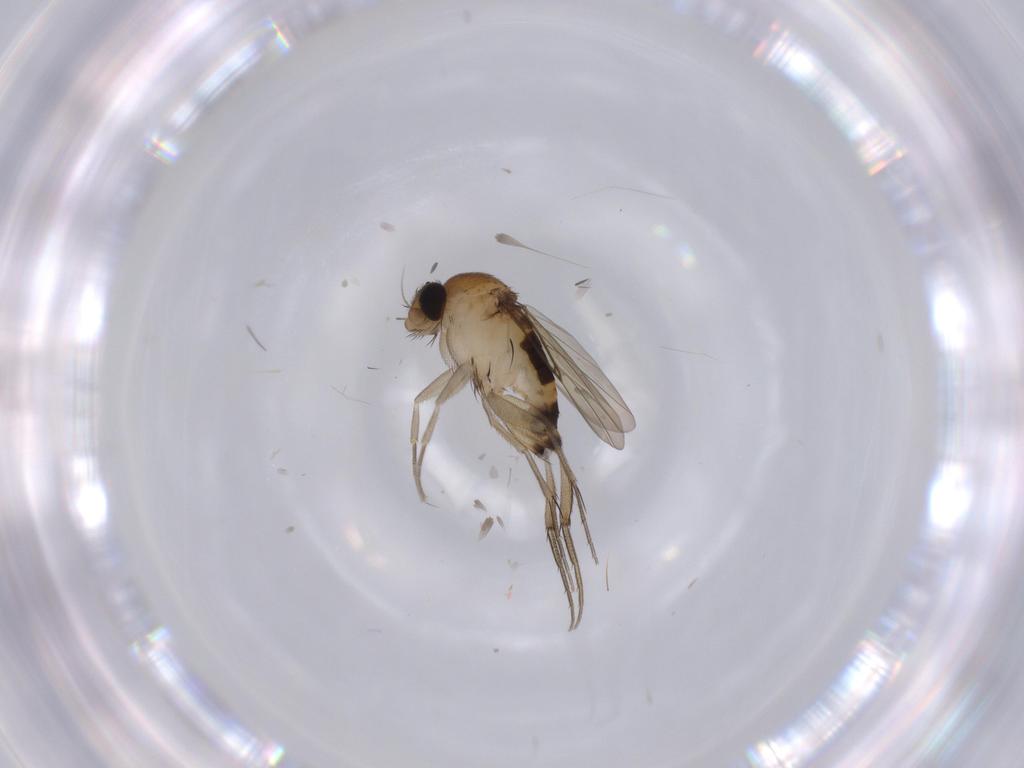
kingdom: Animalia
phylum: Arthropoda
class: Insecta
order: Diptera
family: Phoridae
